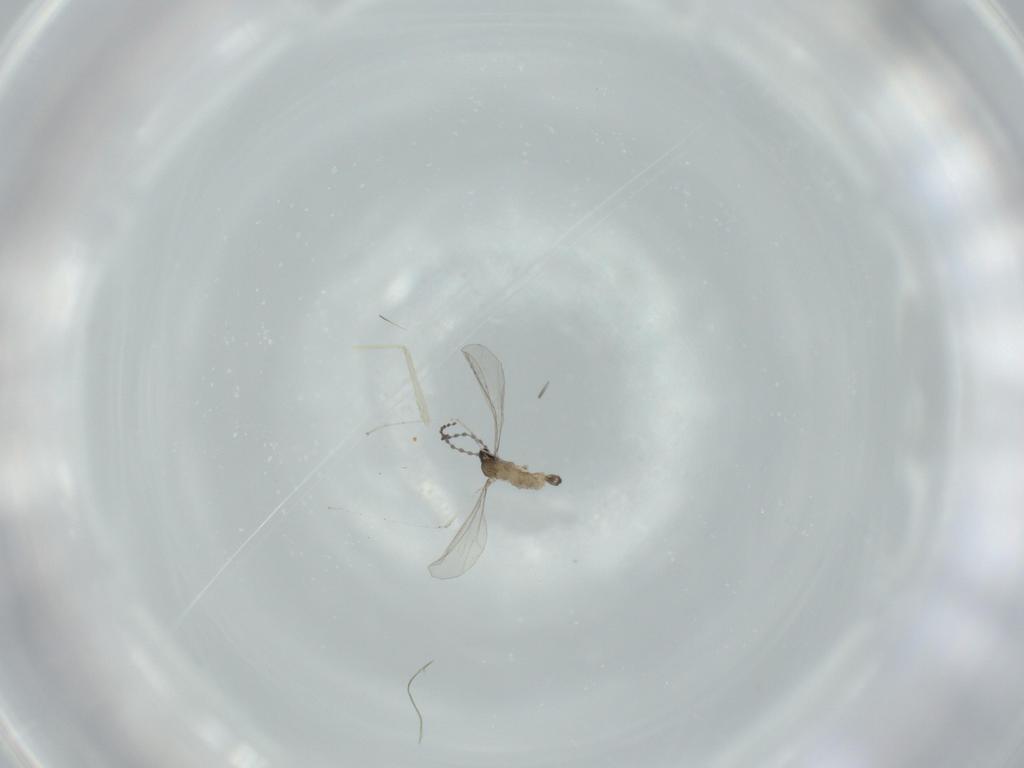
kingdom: Animalia
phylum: Arthropoda
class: Insecta
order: Diptera
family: Cecidomyiidae
